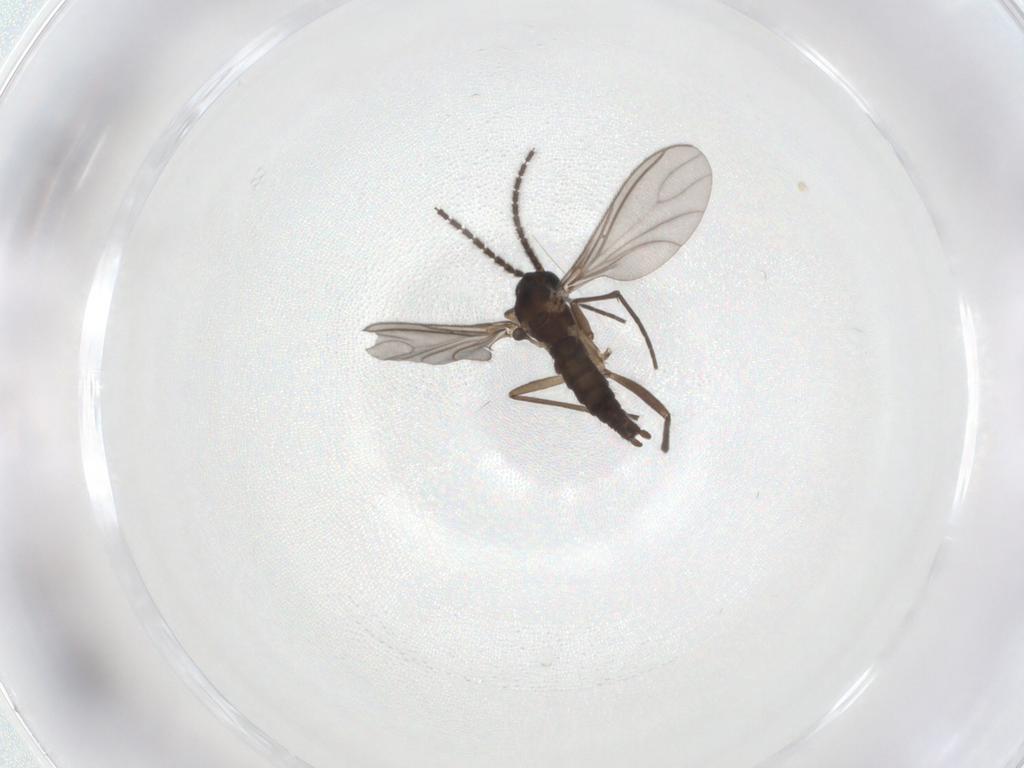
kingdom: Animalia
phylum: Arthropoda
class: Insecta
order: Diptera
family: Sciaridae
